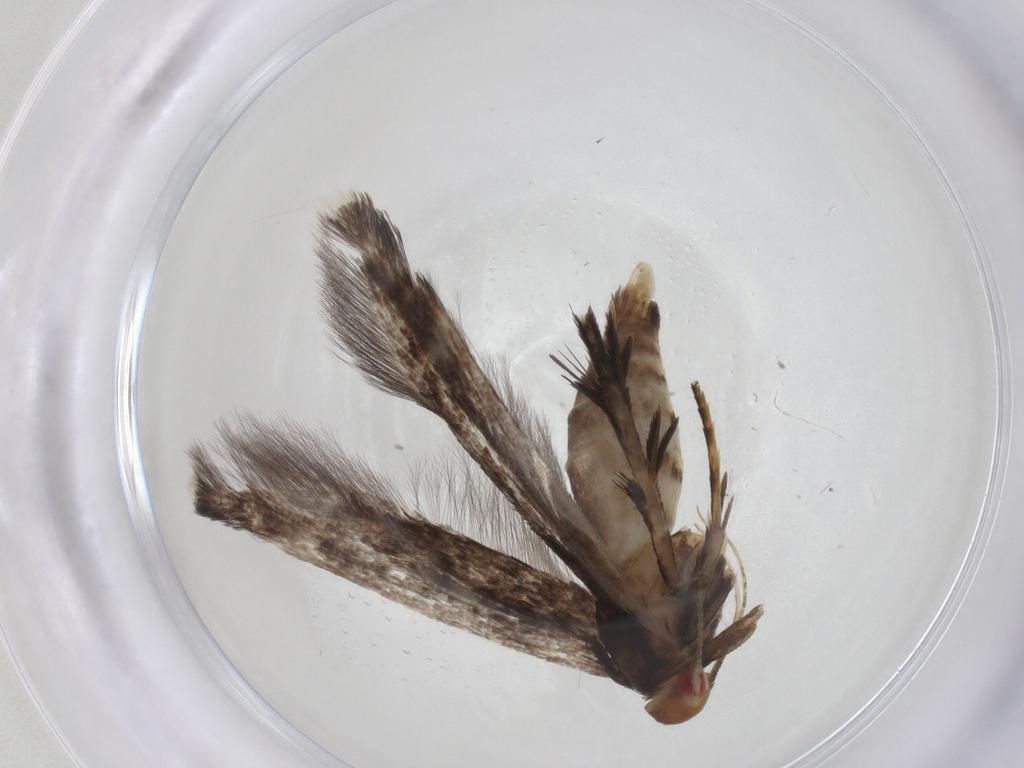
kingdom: Animalia
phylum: Arthropoda
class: Insecta
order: Lepidoptera
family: Gelechiidae
